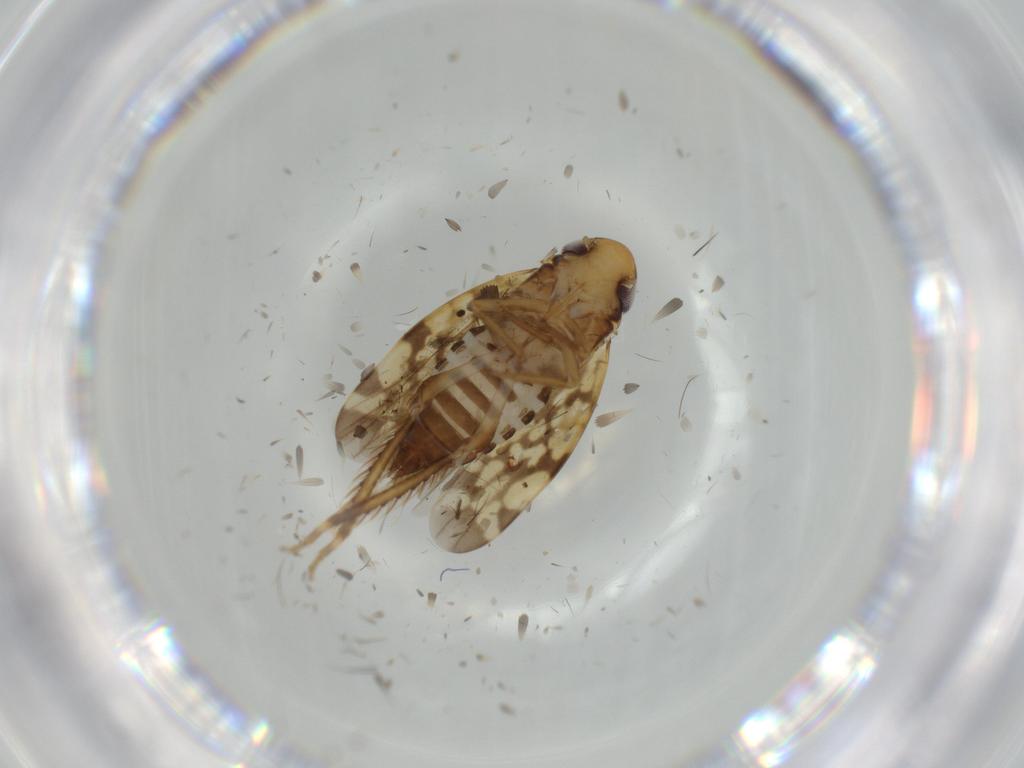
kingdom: Animalia
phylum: Arthropoda
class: Insecta
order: Hemiptera
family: Cicadellidae
